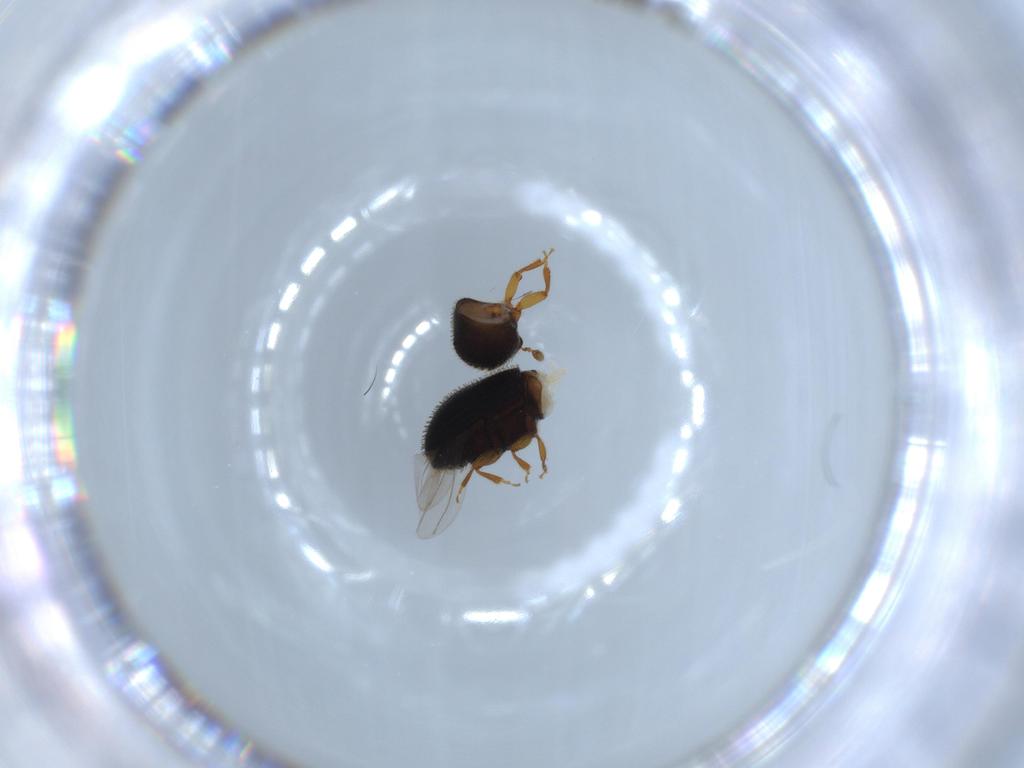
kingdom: Animalia
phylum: Arthropoda
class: Insecta
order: Coleoptera
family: Curculionidae
